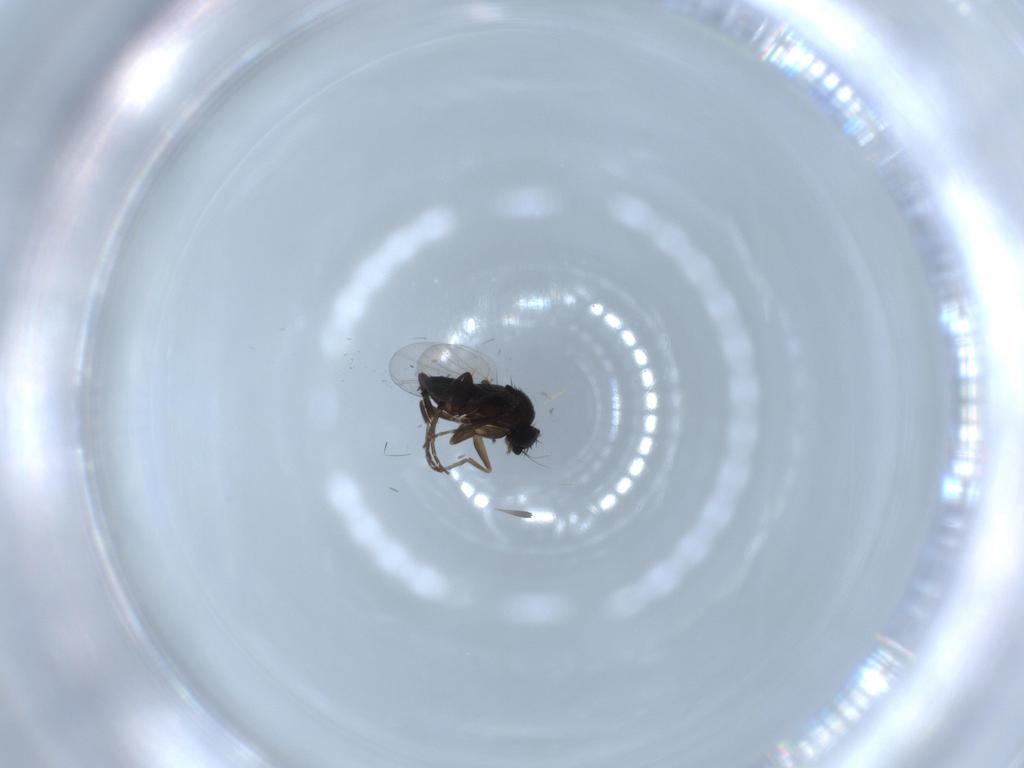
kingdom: Animalia
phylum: Arthropoda
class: Insecta
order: Diptera
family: Phoridae
